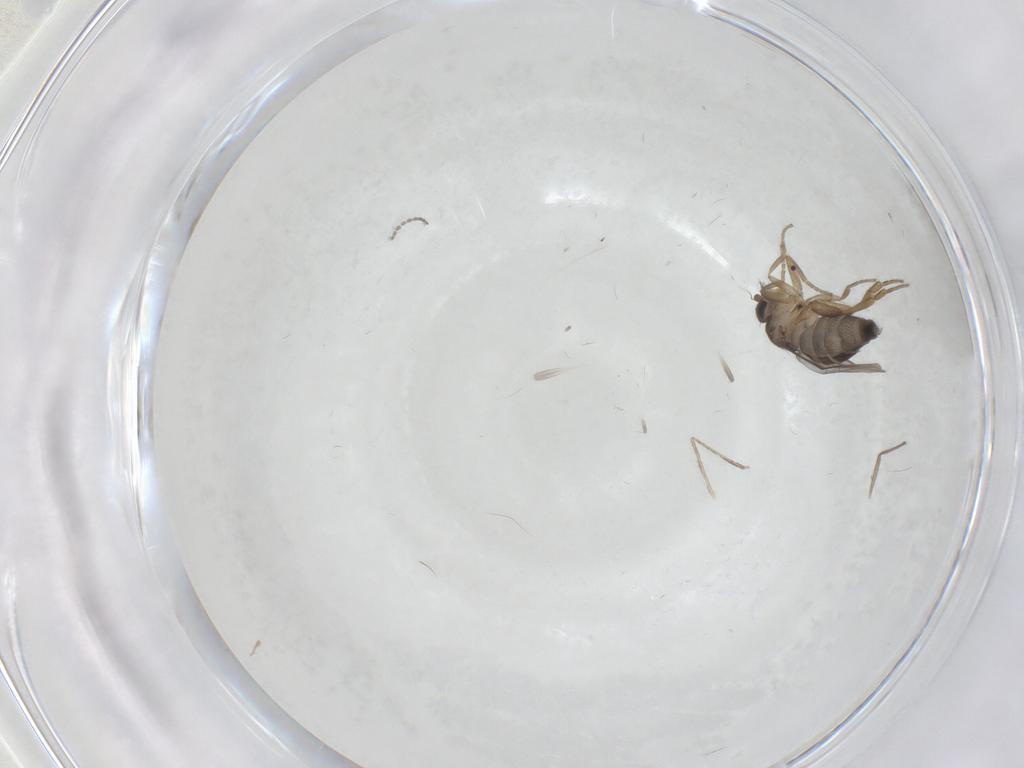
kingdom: Animalia
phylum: Arthropoda
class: Insecta
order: Diptera
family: Cecidomyiidae
